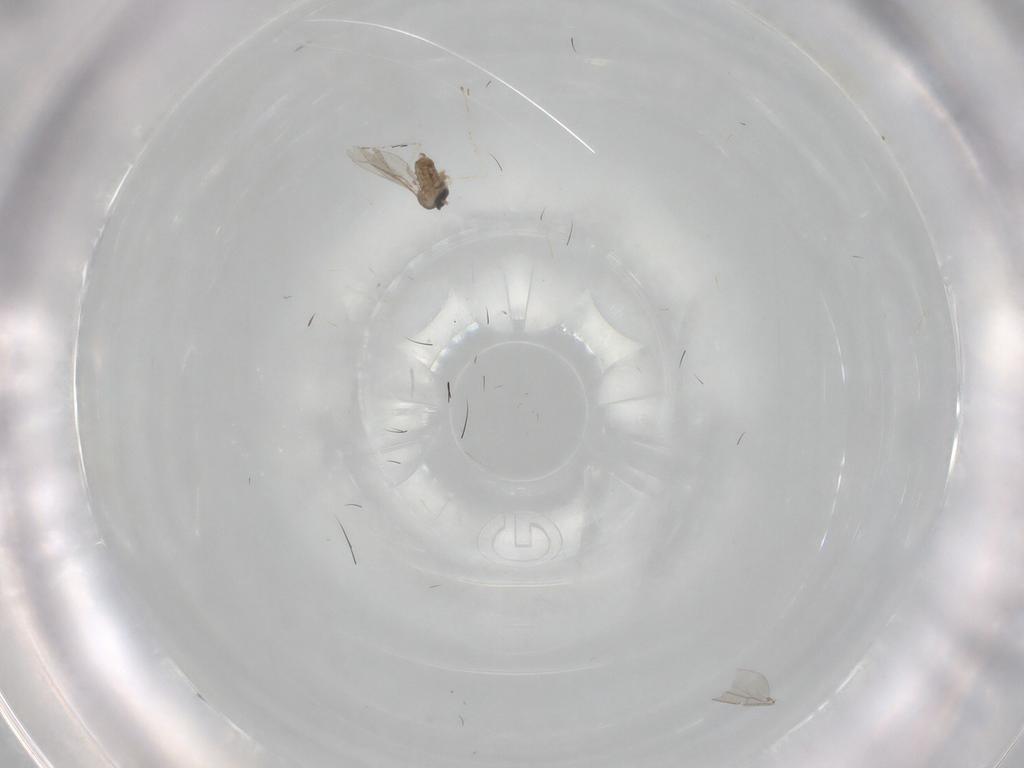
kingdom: Animalia
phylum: Arthropoda
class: Insecta
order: Diptera
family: Cecidomyiidae
